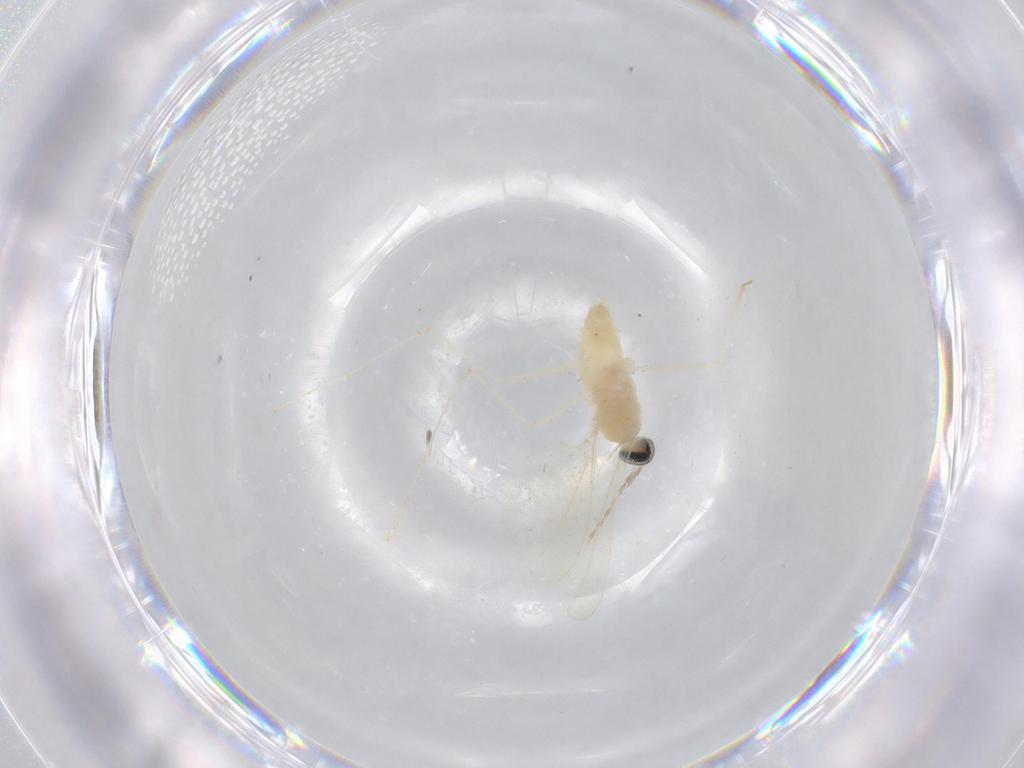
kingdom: Animalia
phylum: Arthropoda
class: Insecta
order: Diptera
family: Cecidomyiidae
